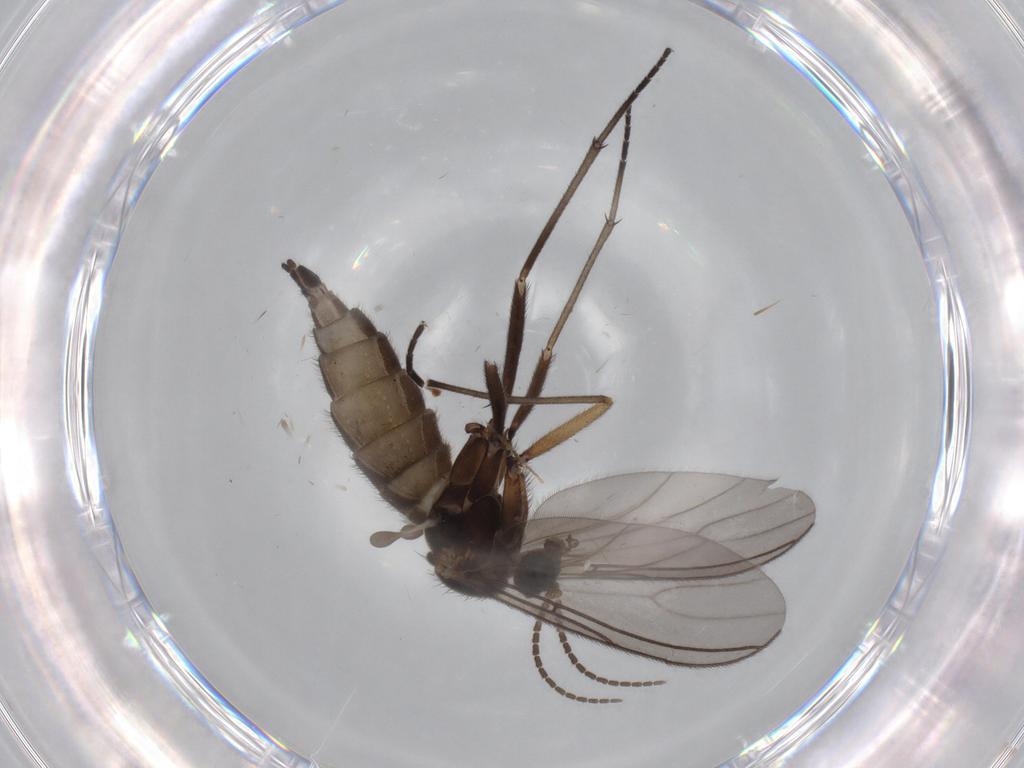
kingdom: Animalia
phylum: Arthropoda
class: Insecta
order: Diptera
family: Sciaridae
